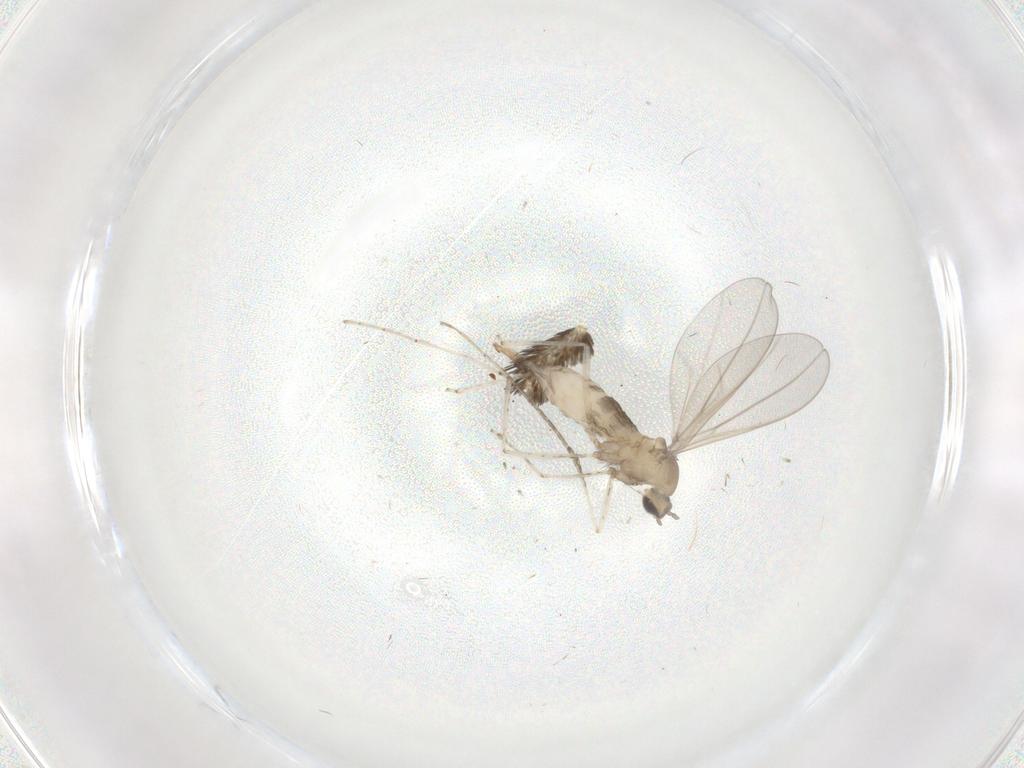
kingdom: Animalia
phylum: Arthropoda
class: Insecta
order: Diptera
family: Cecidomyiidae
